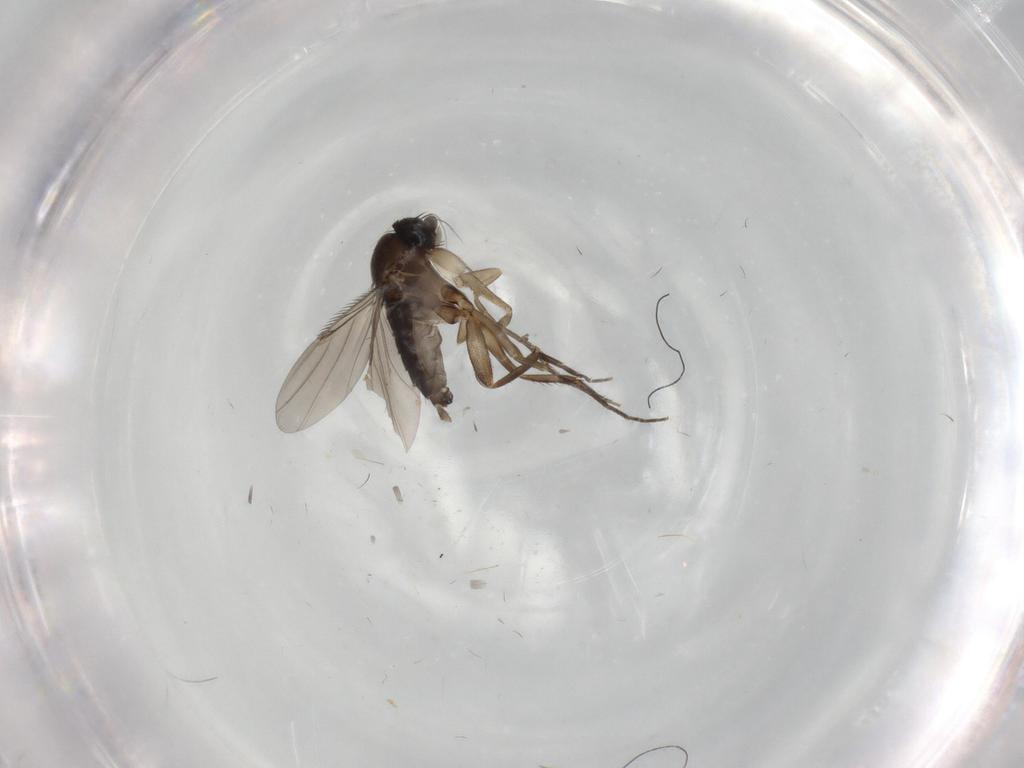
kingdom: Animalia
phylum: Arthropoda
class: Insecta
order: Diptera
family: Phoridae
